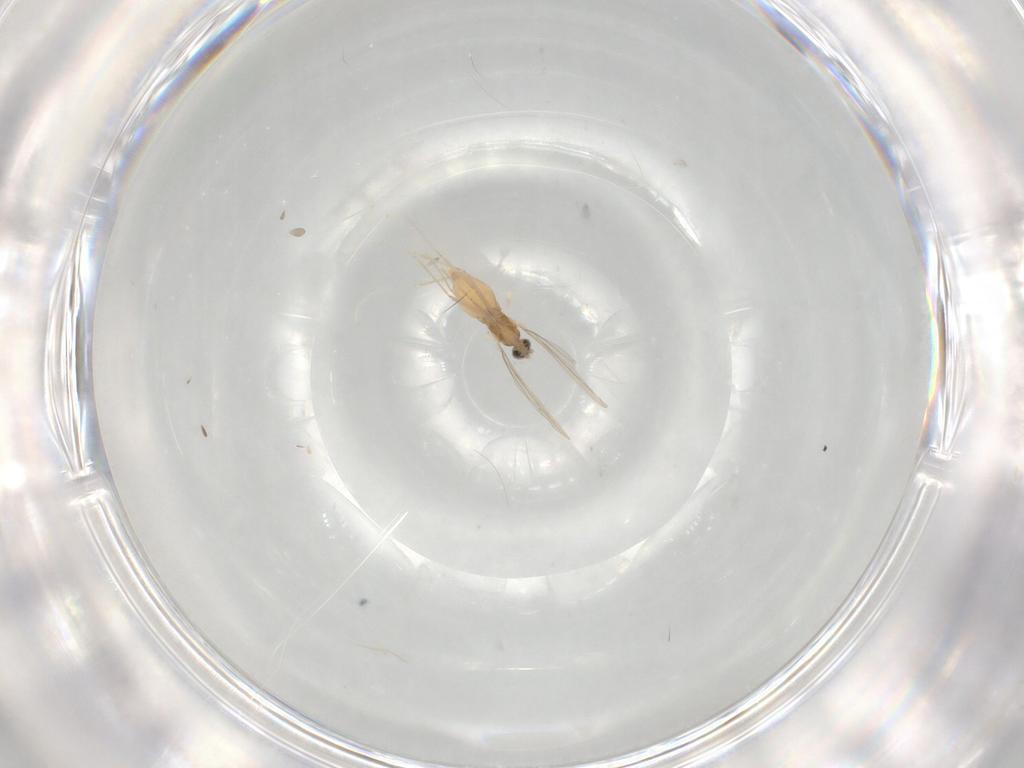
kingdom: Animalia
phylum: Arthropoda
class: Insecta
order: Diptera
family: Cecidomyiidae
